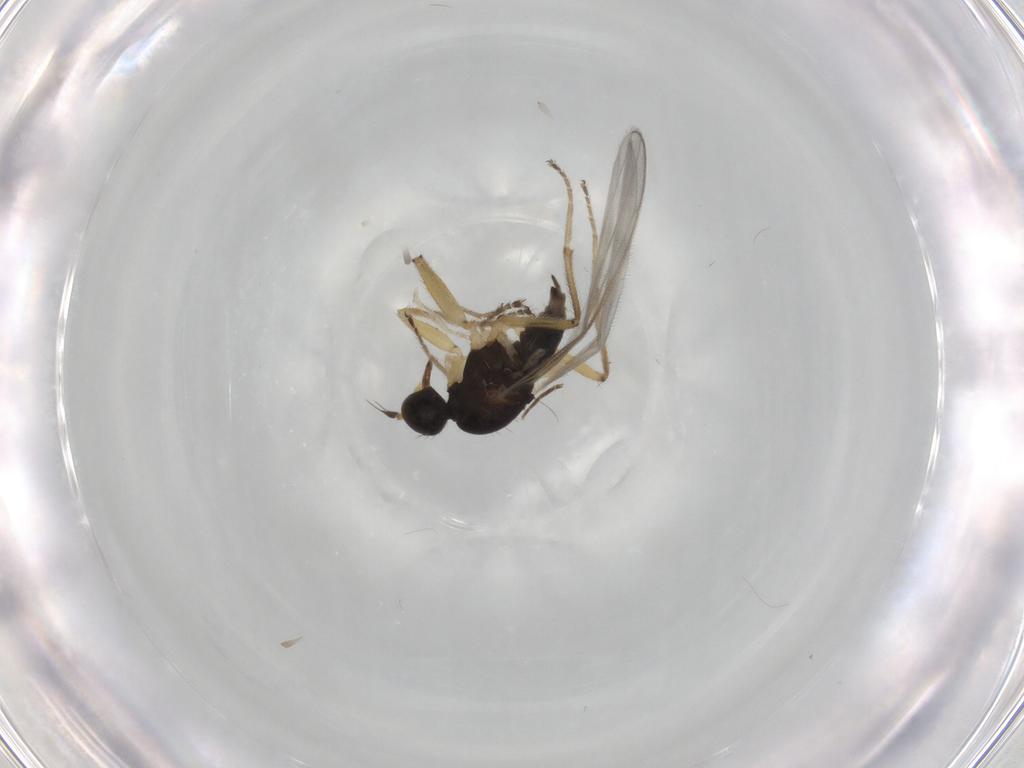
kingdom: Animalia
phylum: Arthropoda
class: Insecta
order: Diptera
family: Hybotidae
